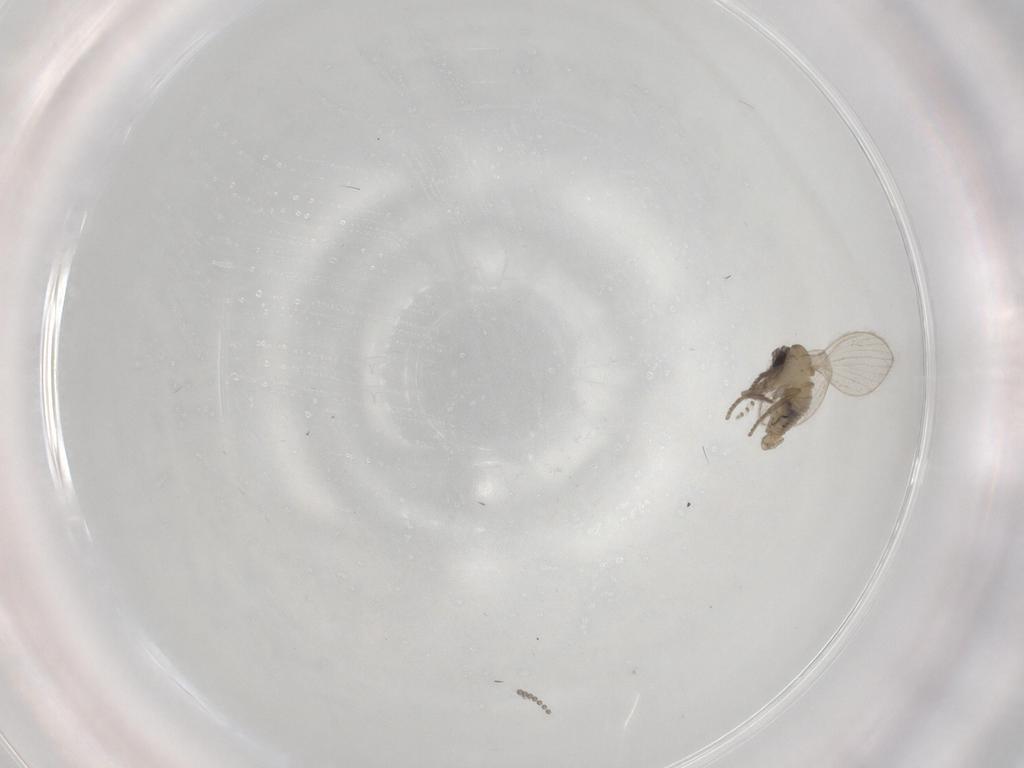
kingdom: Animalia
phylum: Arthropoda
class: Insecta
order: Diptera
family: Psychodidae
